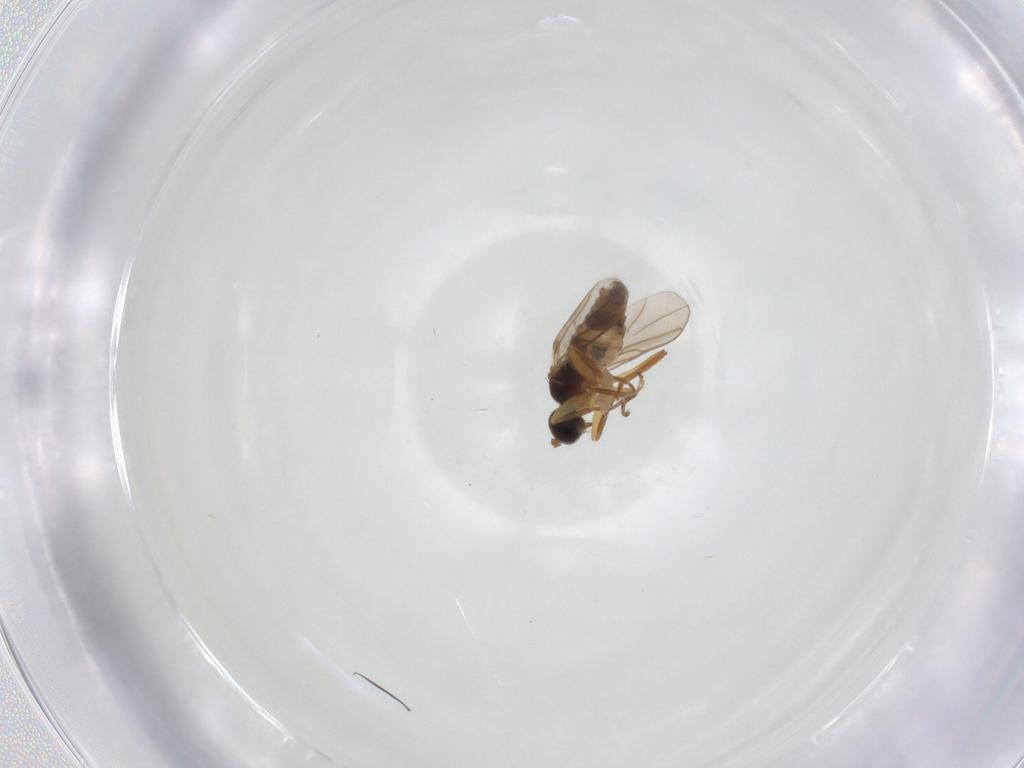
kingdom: Animalia
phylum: Arthropoda
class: Insecta
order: Diptera
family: Hybotidae
